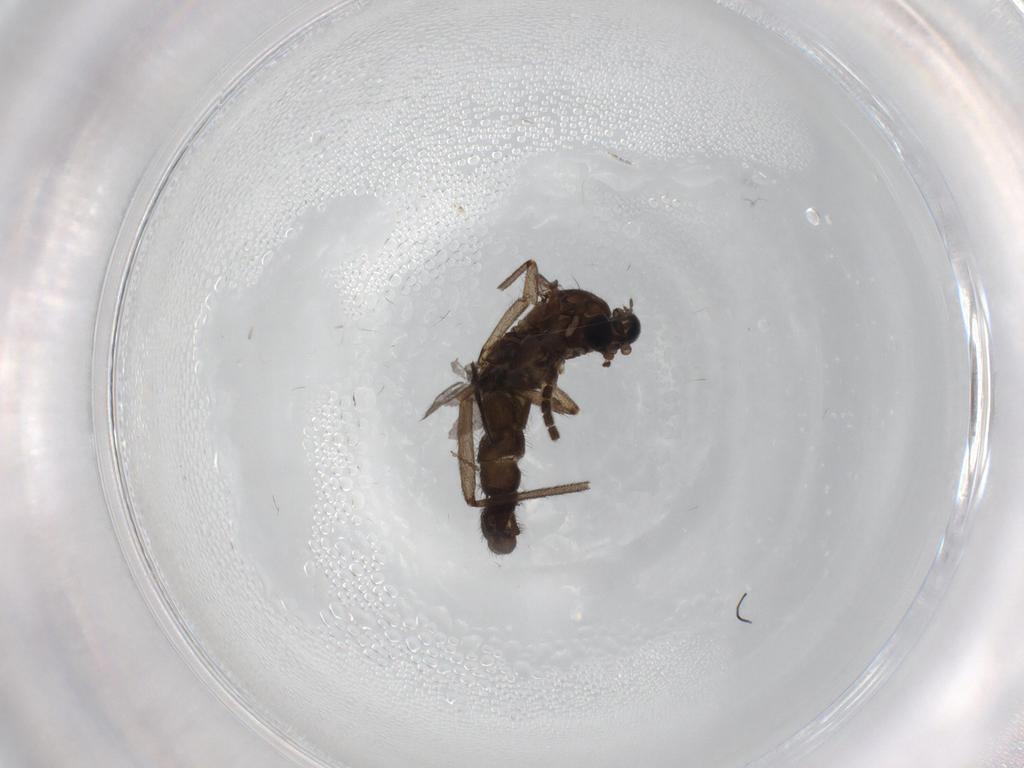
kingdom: Animalia
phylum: Arthropoda
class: Insecta
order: Diptera
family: Sciaridae
